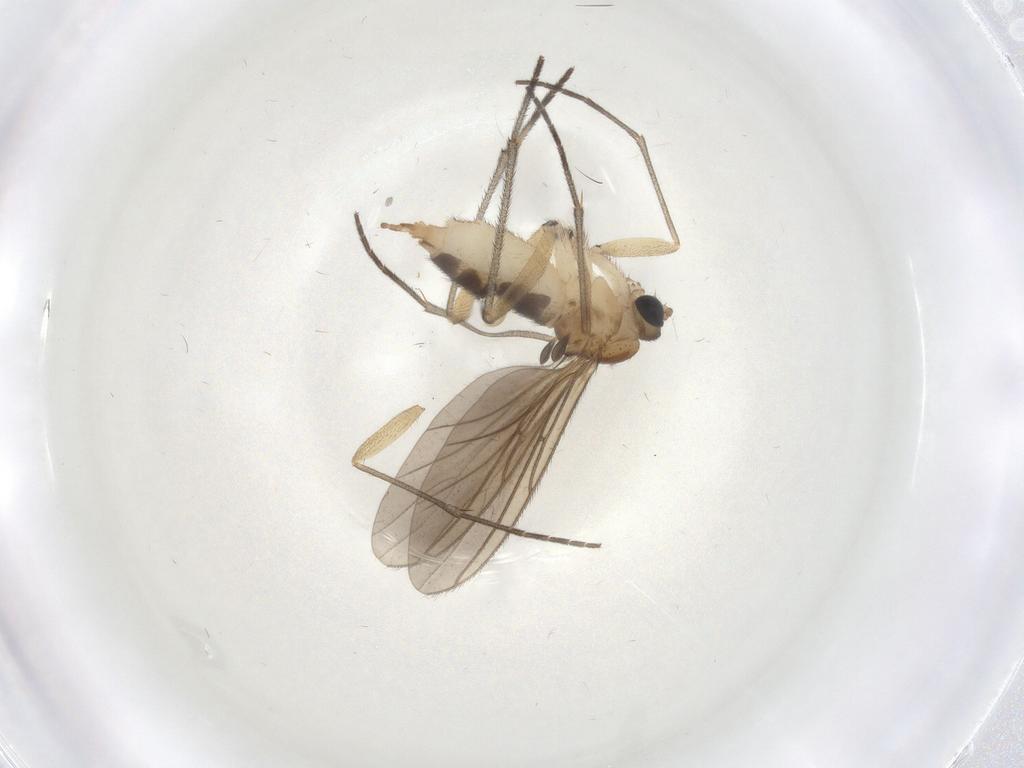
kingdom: Animalia
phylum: Arthropoda
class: Insecta
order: Diptera
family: Sciaridae
